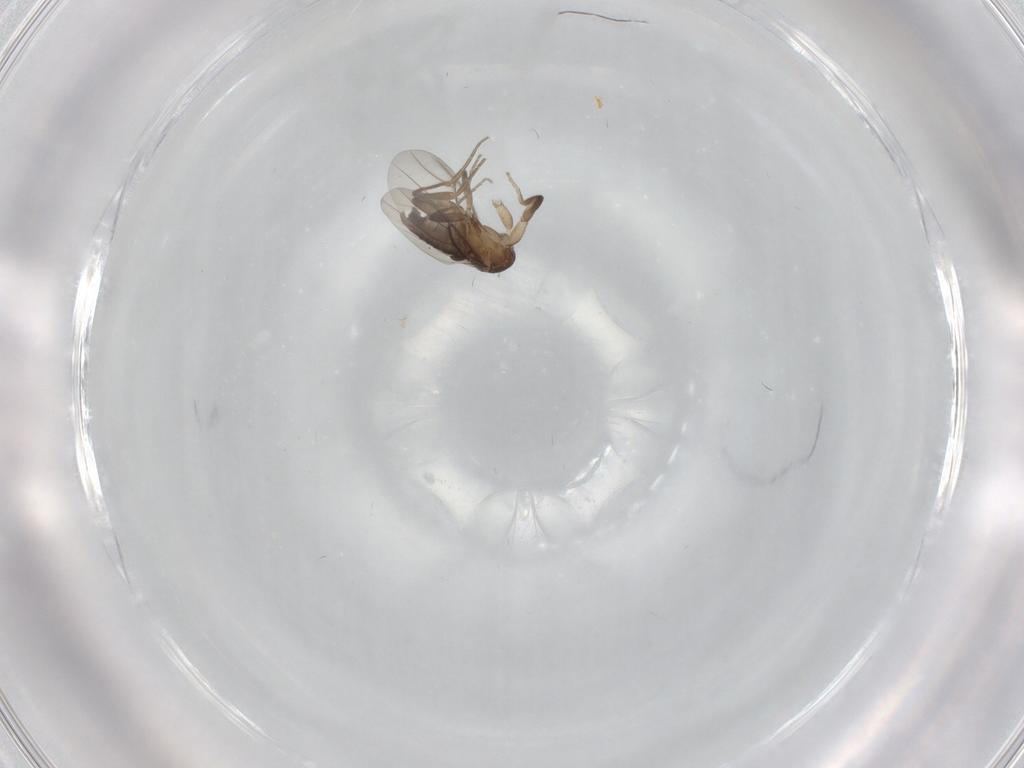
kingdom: Animalia
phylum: Arthropoda
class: Insecta
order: Diptera
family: Phoridae
